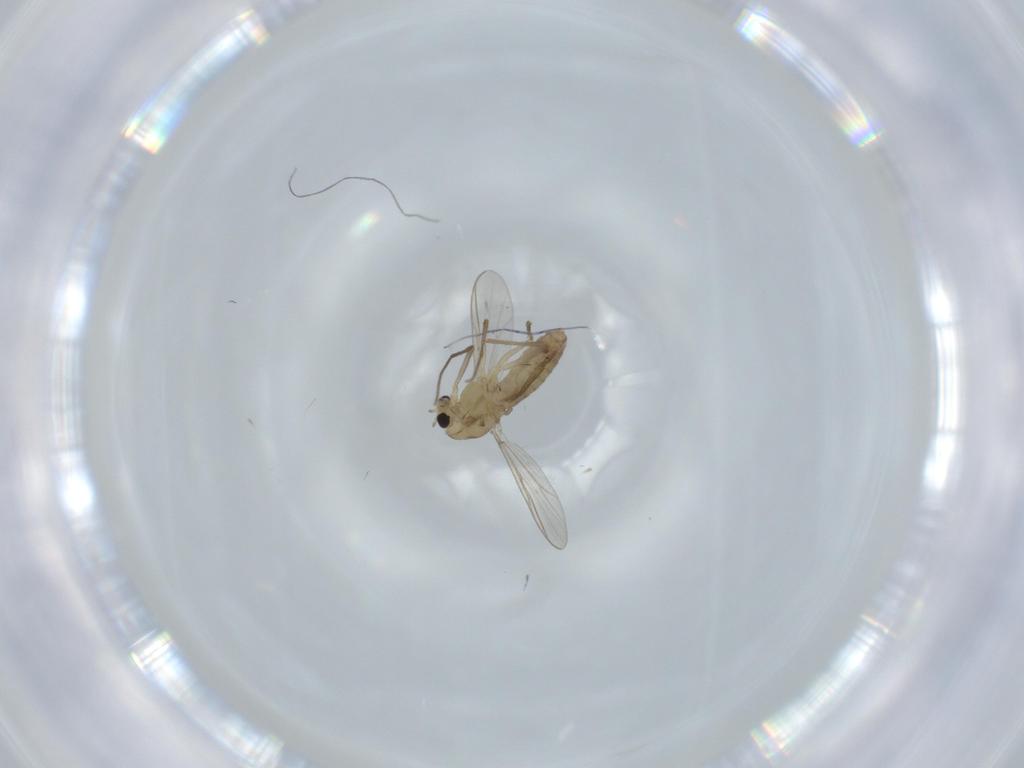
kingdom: Animalia
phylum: Arthropoda
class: Insecta
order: Diptera
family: Chironomidae
